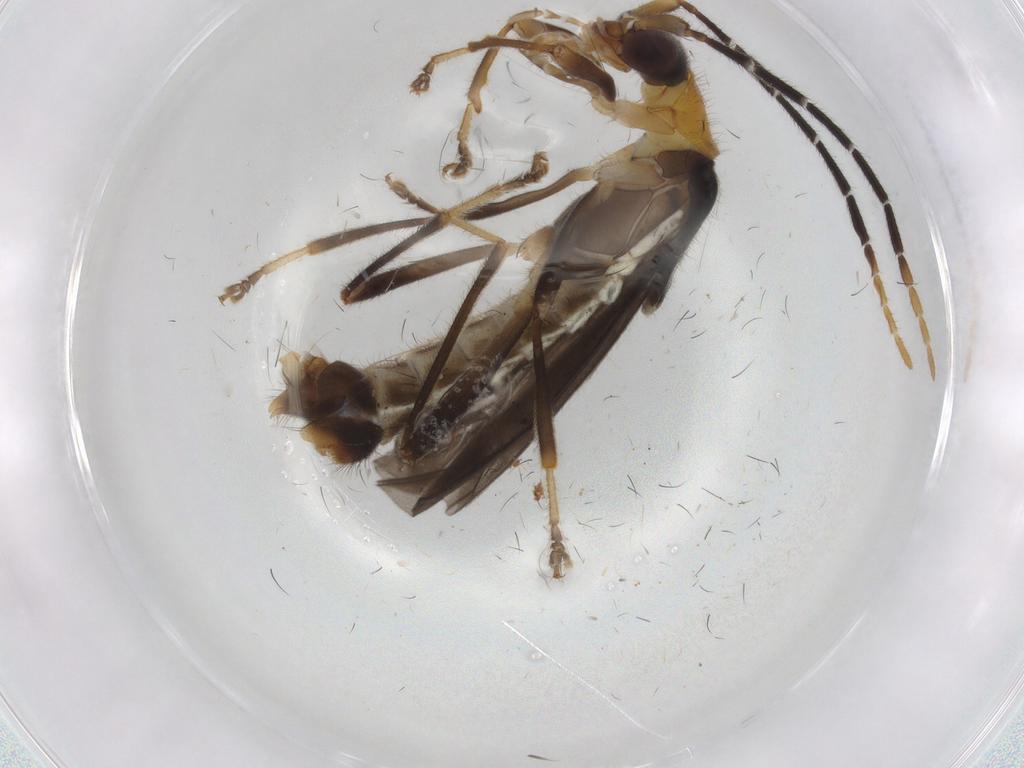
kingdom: Animalia
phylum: Arthropoda
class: Insecta
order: Coleoptera
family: Cantharidae
